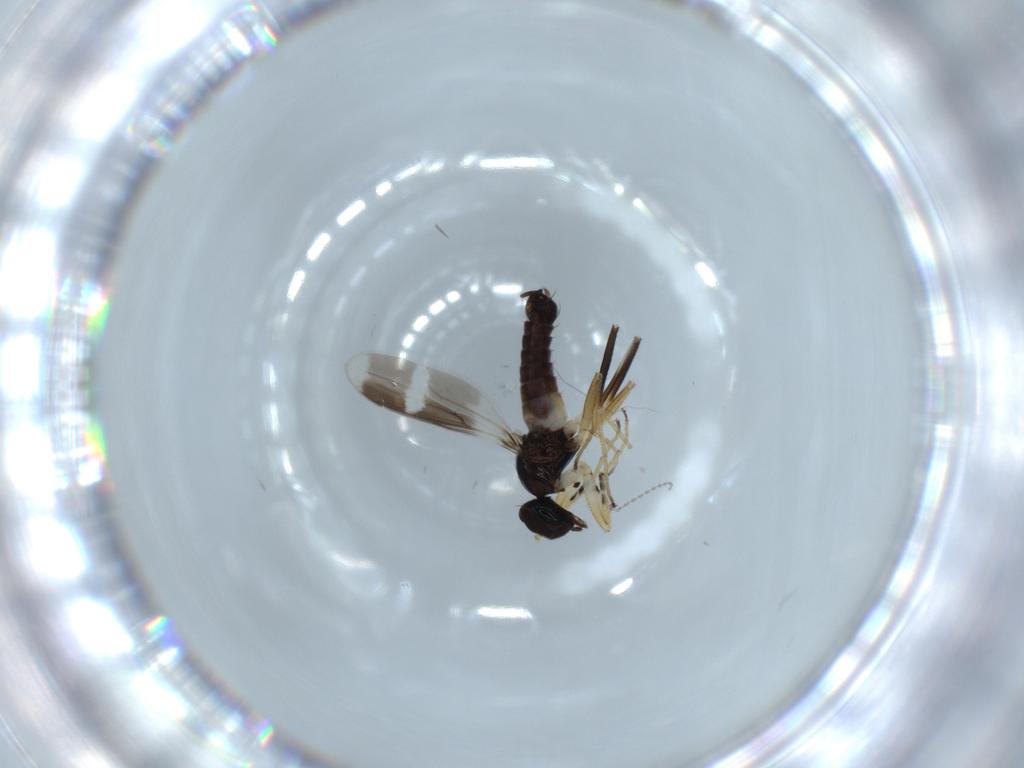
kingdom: Animalia
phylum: Arthropoda
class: Insecta
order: Diptera
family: Hybotidae
